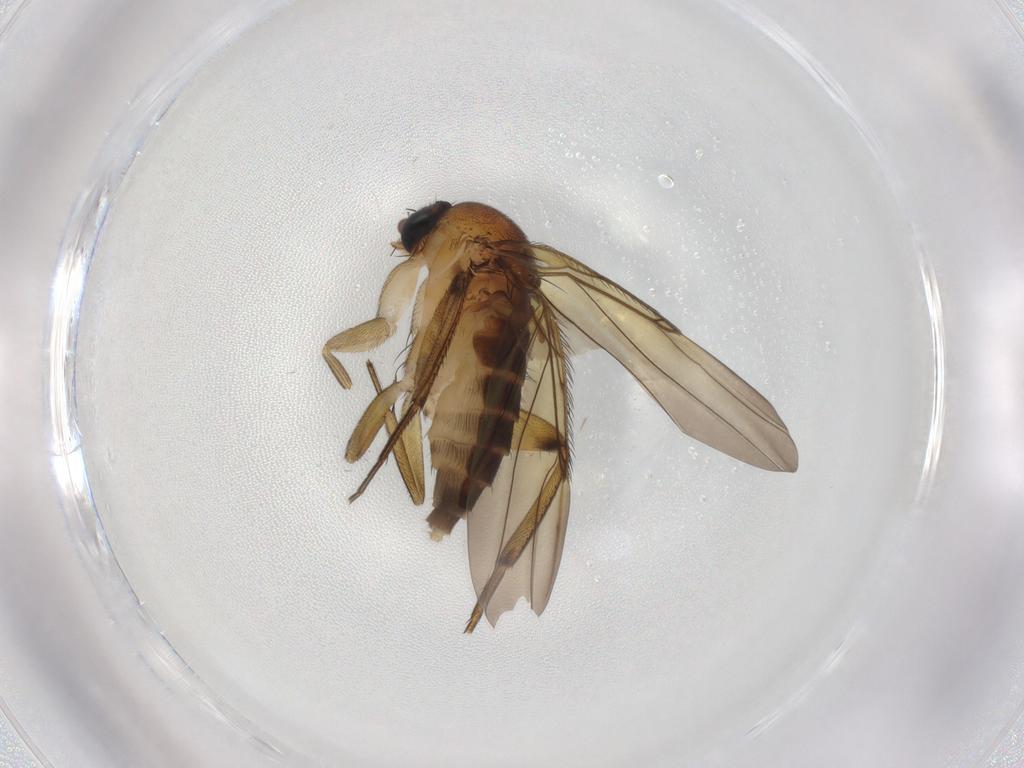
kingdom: Animalia
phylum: Arthropoda
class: Insecta
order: Diptera
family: Phoridae
